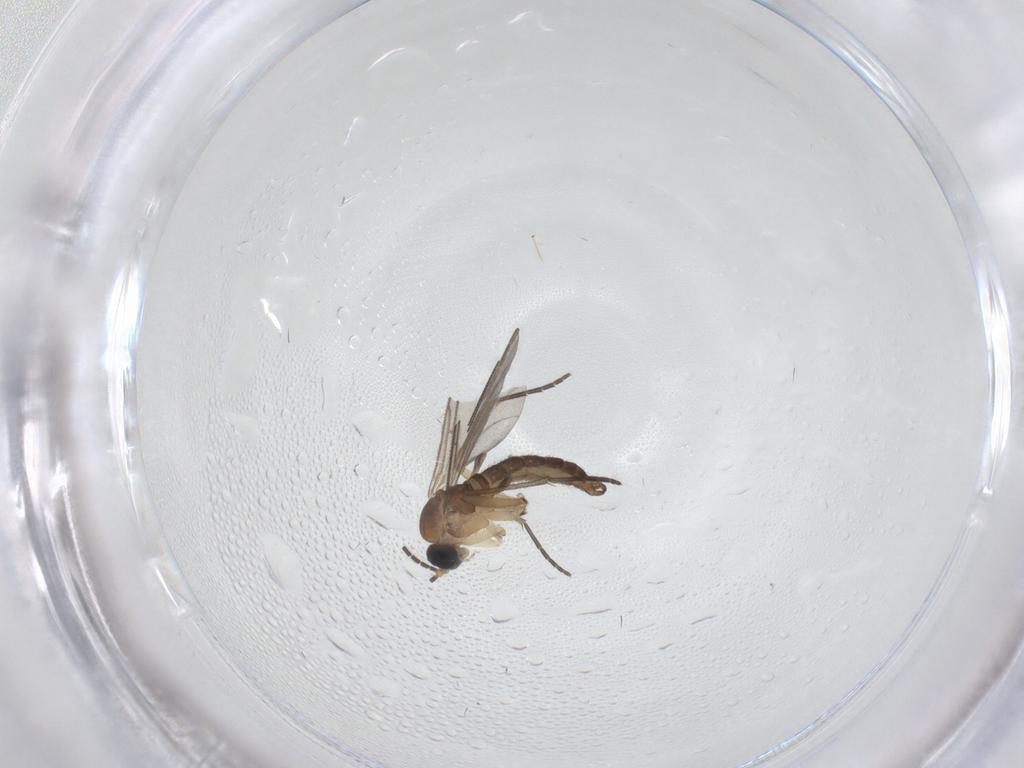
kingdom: Animalia
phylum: Arthropoda
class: Insecta
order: Diptera
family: Sciaridae
